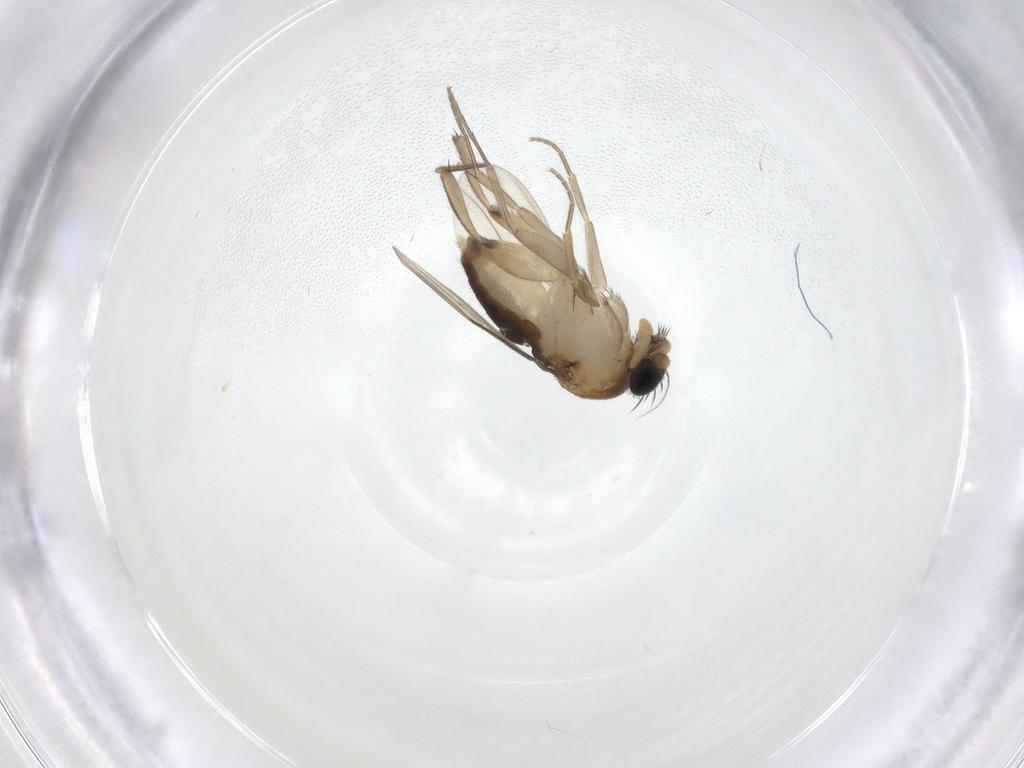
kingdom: Animalia
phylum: Arthropoda
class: Insecta
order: Diptera
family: Phoridae
